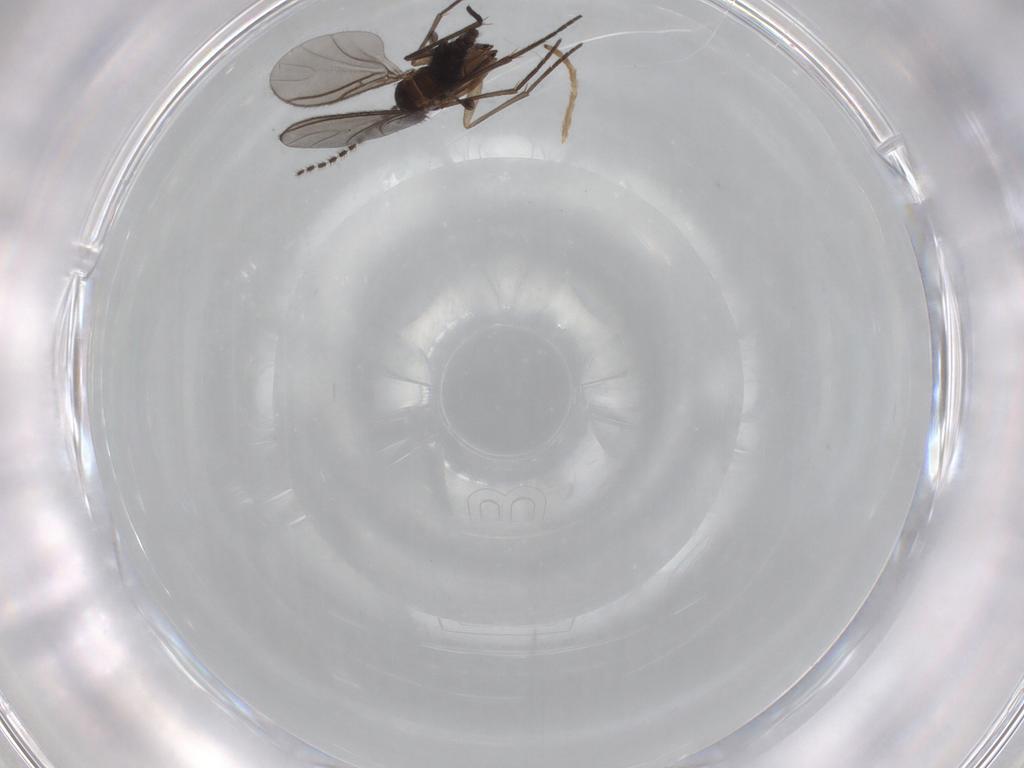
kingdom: Animalia
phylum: Arthropoda
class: Insecta
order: Diptera
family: Sciaridae
